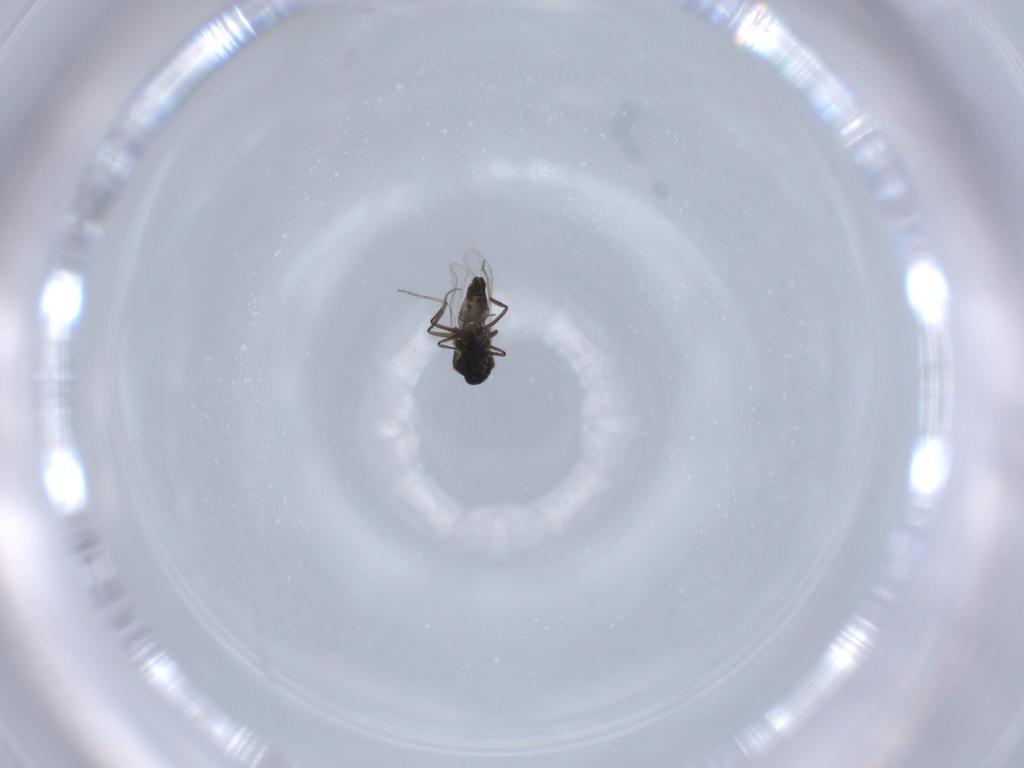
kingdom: Animalia
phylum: Arthropoda
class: Insecta
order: Diptera
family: Ceratopogonidae
